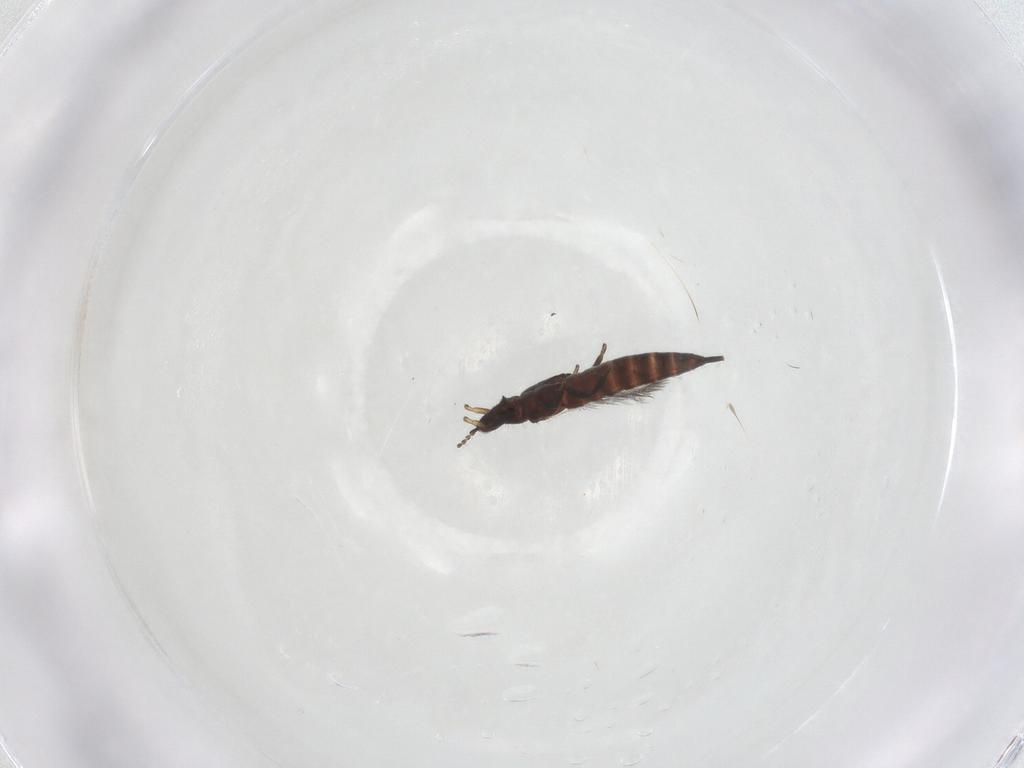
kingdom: Animalia
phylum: Arthropoda
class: Insecta
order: Thysanoptera
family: Phlaeothripidae
